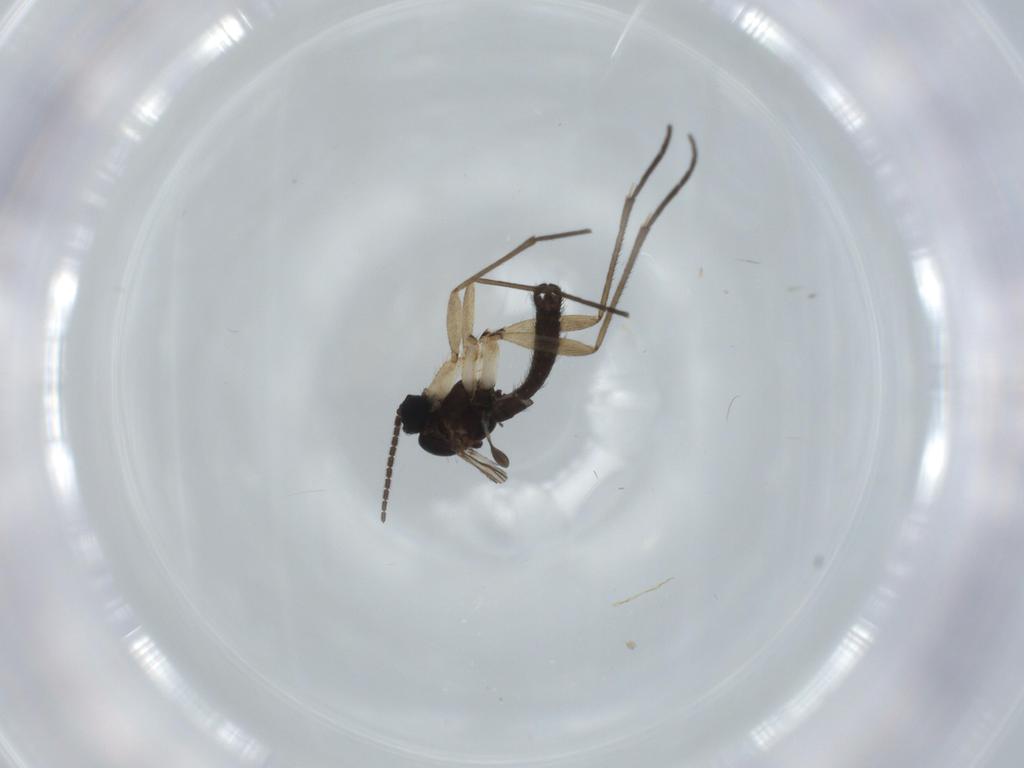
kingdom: Animalia
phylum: Arthropoda
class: Insecta
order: Diptera
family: Sciaridae
